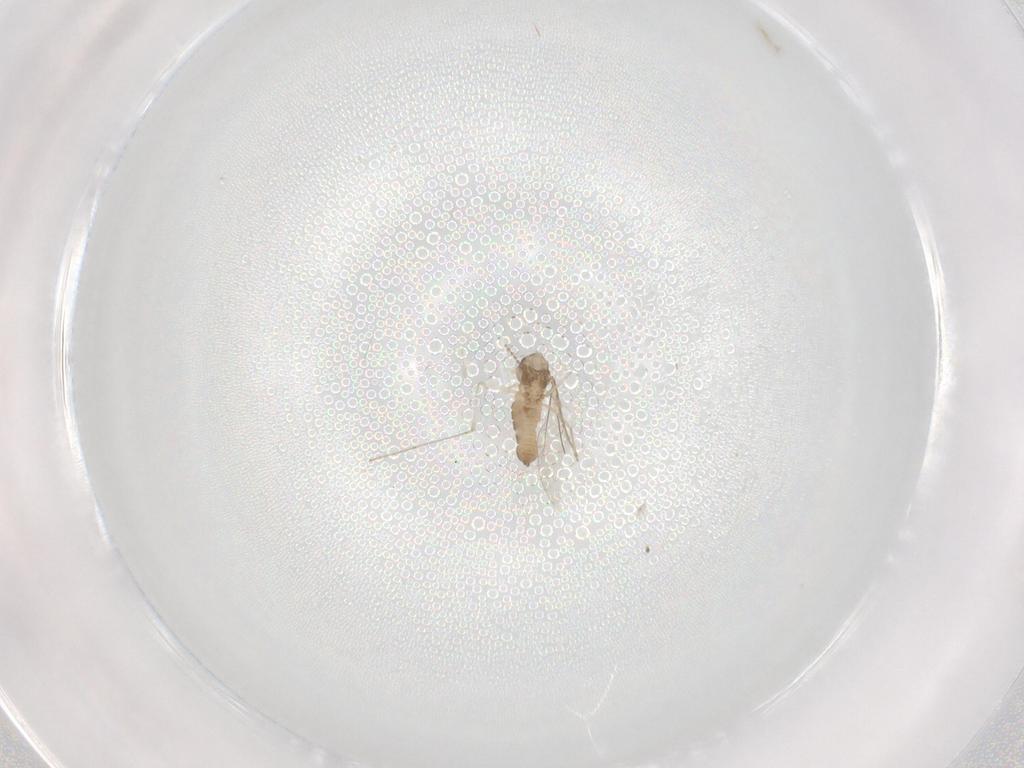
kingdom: Animalia
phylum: Arthropoda
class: Insecta
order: Diptera
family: Cecidomyiidae
